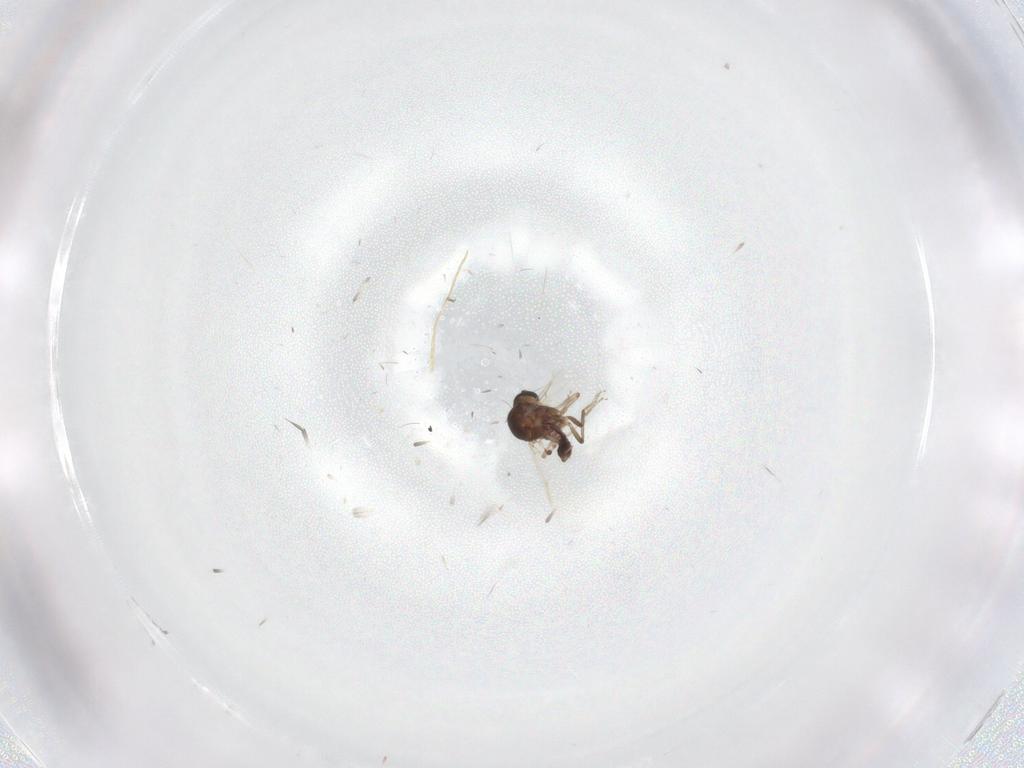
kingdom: Animalia
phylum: Arthropoda
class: Insecta
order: Diptera
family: Ceratopogonidae
